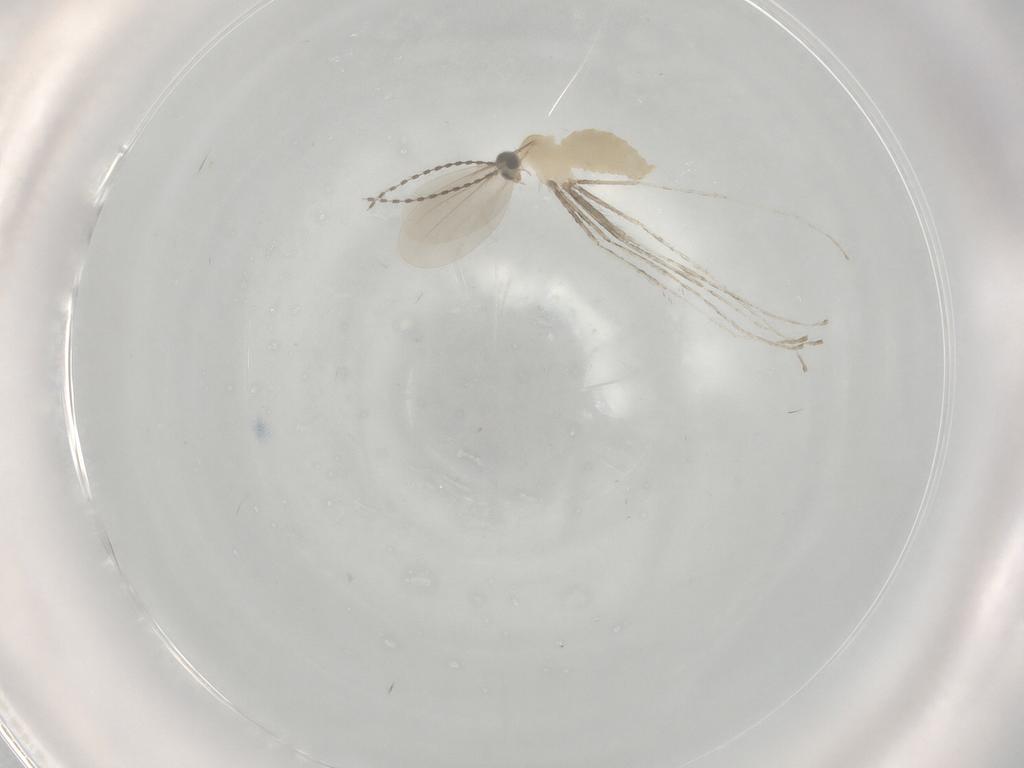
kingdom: Animalia
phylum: Arthropoda
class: Insecta
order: Diptera
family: Cecidomyiidae
